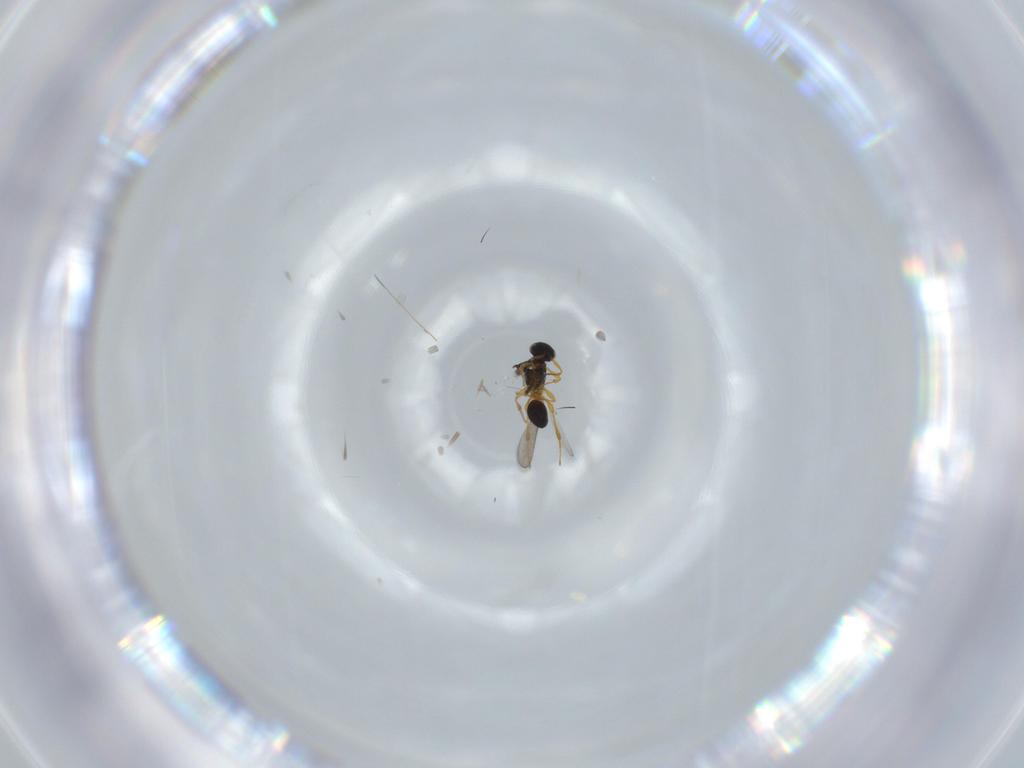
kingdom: Animalia
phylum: Arthropoda
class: Insecta
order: Hymenoptera
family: Platygastridae
